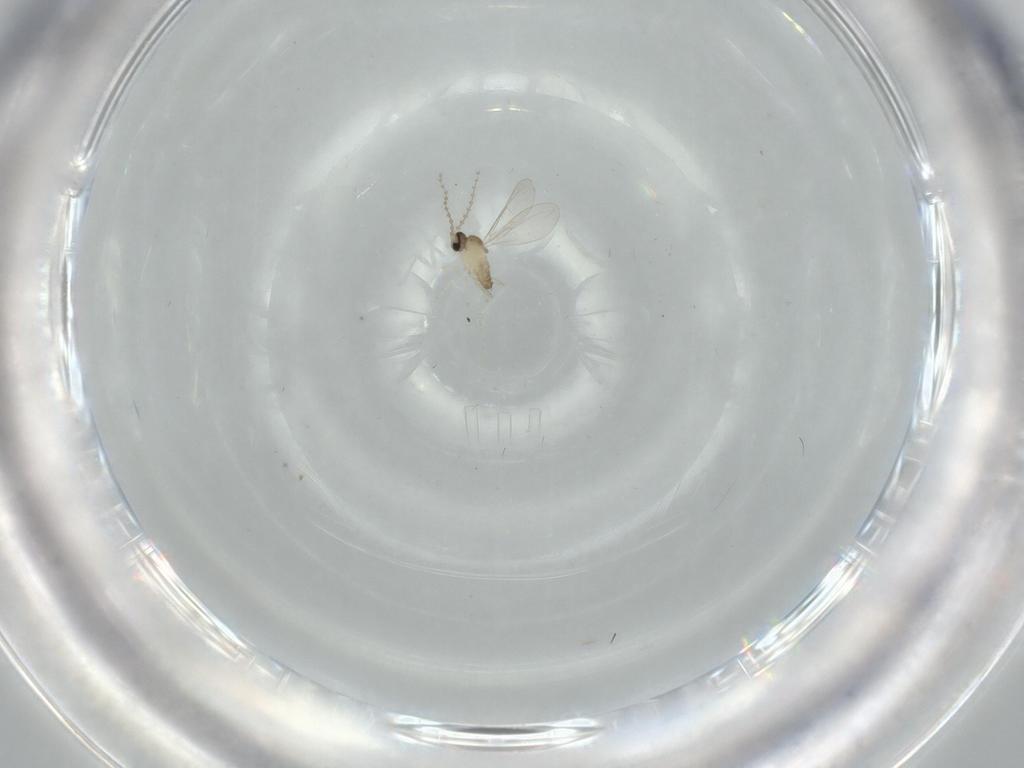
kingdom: Animalia
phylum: Arthropoda
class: Insecta
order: Diptera
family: Cecidomyiidae
